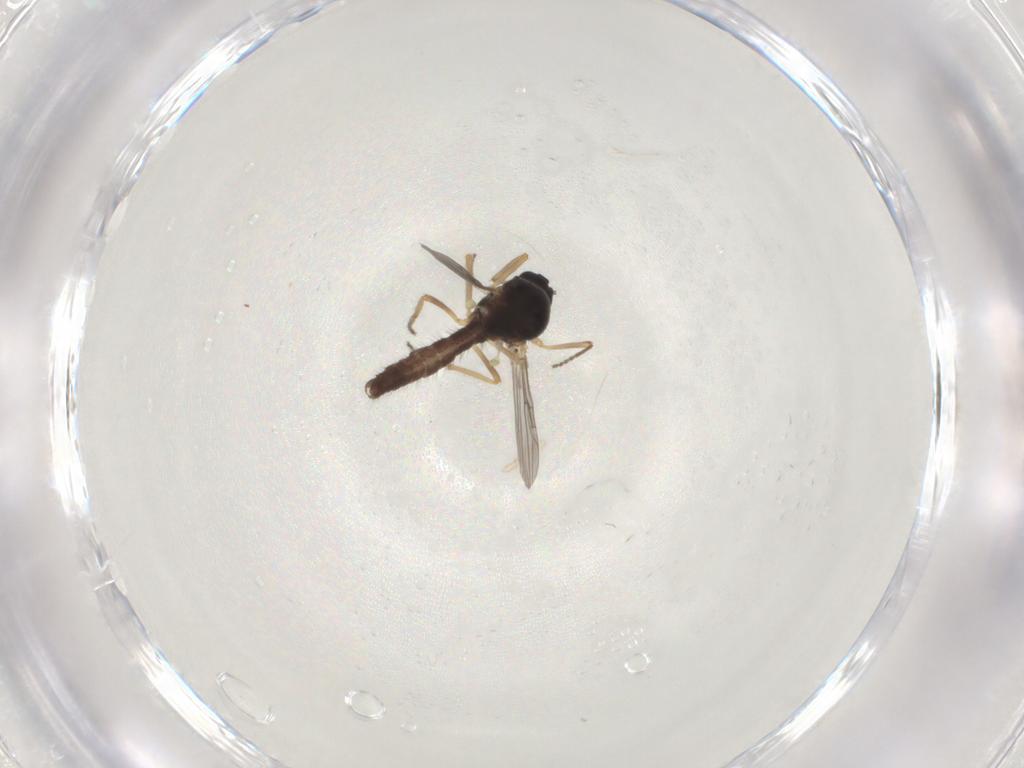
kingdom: Animalia
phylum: Arthropoda
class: Insecta
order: Diptera
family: Ceratopogonidae
